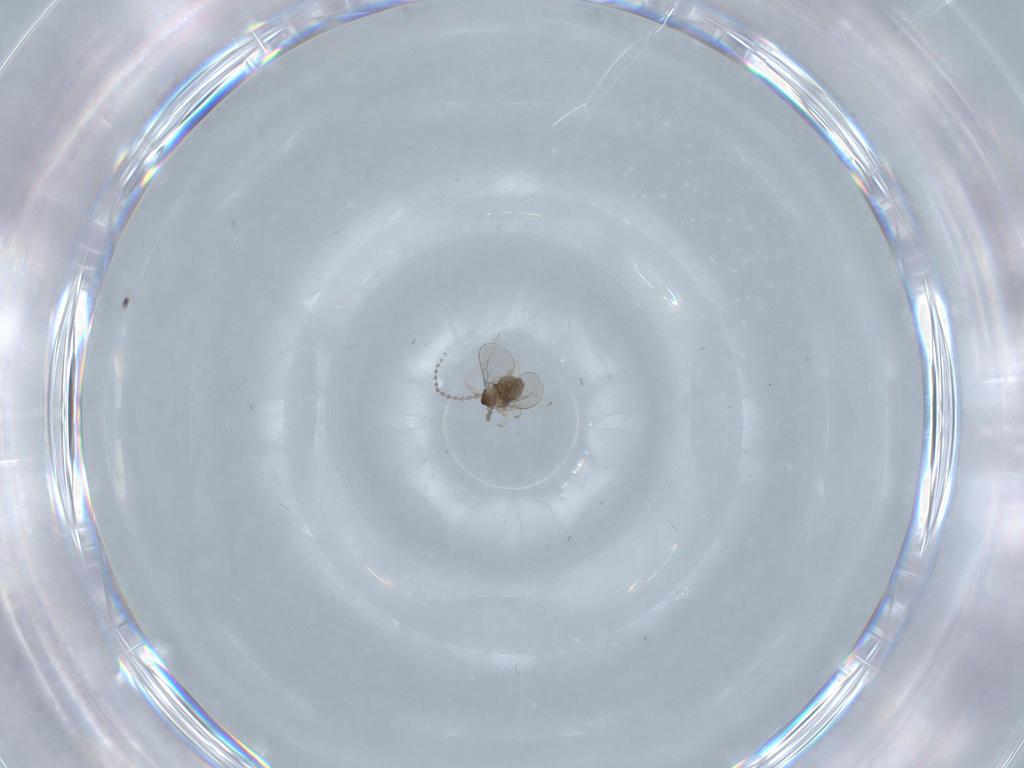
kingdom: Animalia
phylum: Arthropoda
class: Insecta
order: Diptera
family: Cecidomyiidae
